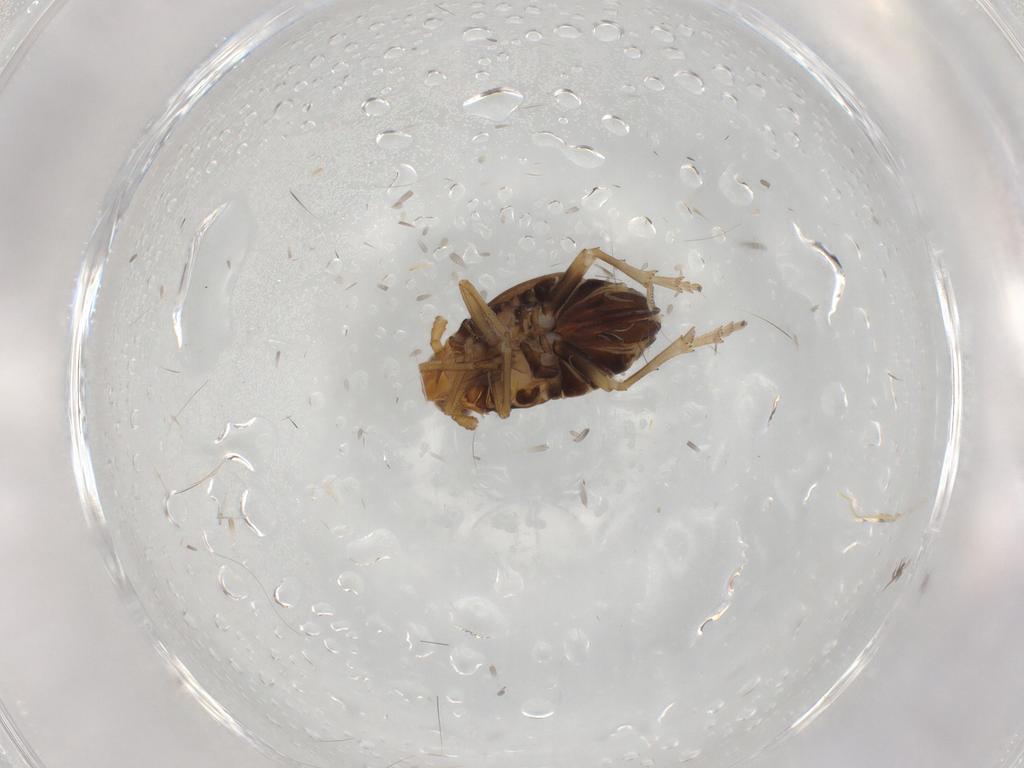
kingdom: Animalia
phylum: Arthropoda
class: Insecta
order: Hemiptera
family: Delphacidae
